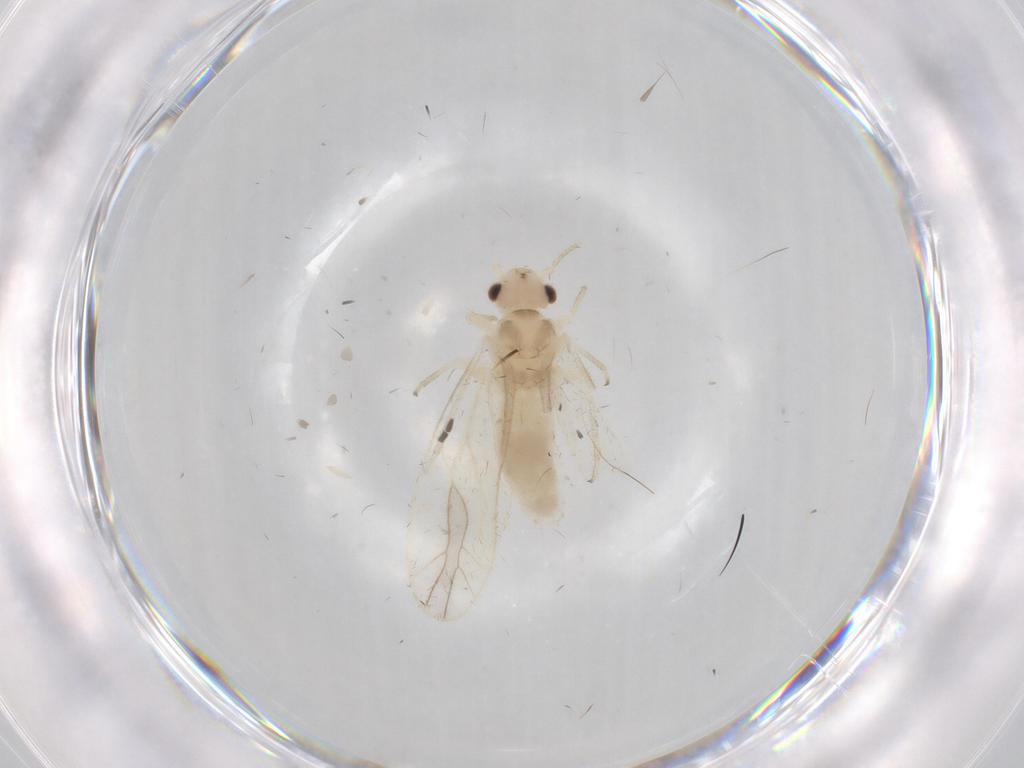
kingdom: Animalia
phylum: Arthropoda
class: Insecta
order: Psocodea
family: Caeciliusidae
